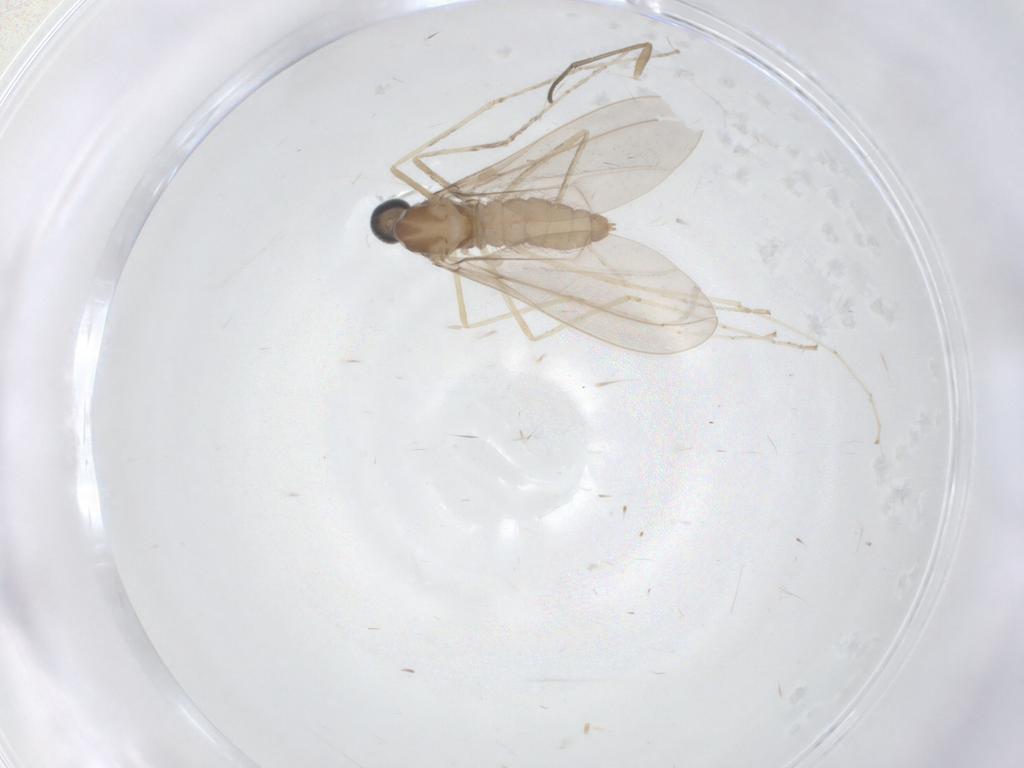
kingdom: Animalia
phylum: Arthropoda
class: Insecta
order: Diptera
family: Cecidomyiidae
